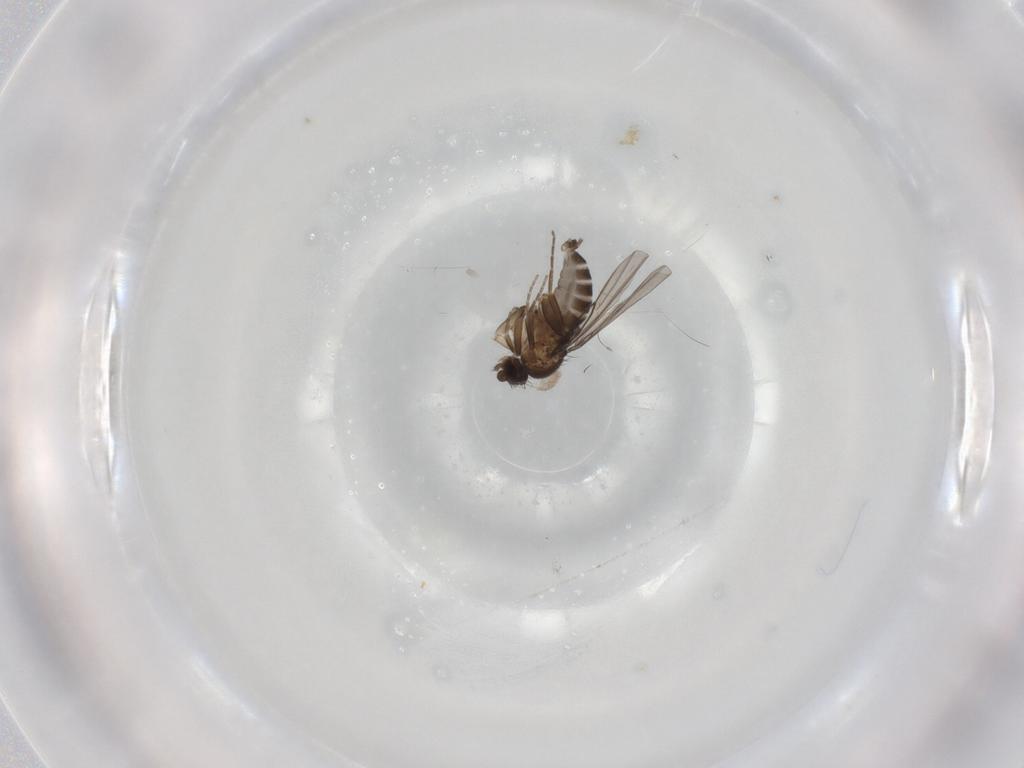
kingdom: Animalia
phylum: Arthropoda
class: Insecta
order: Diptera
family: Phoridae
